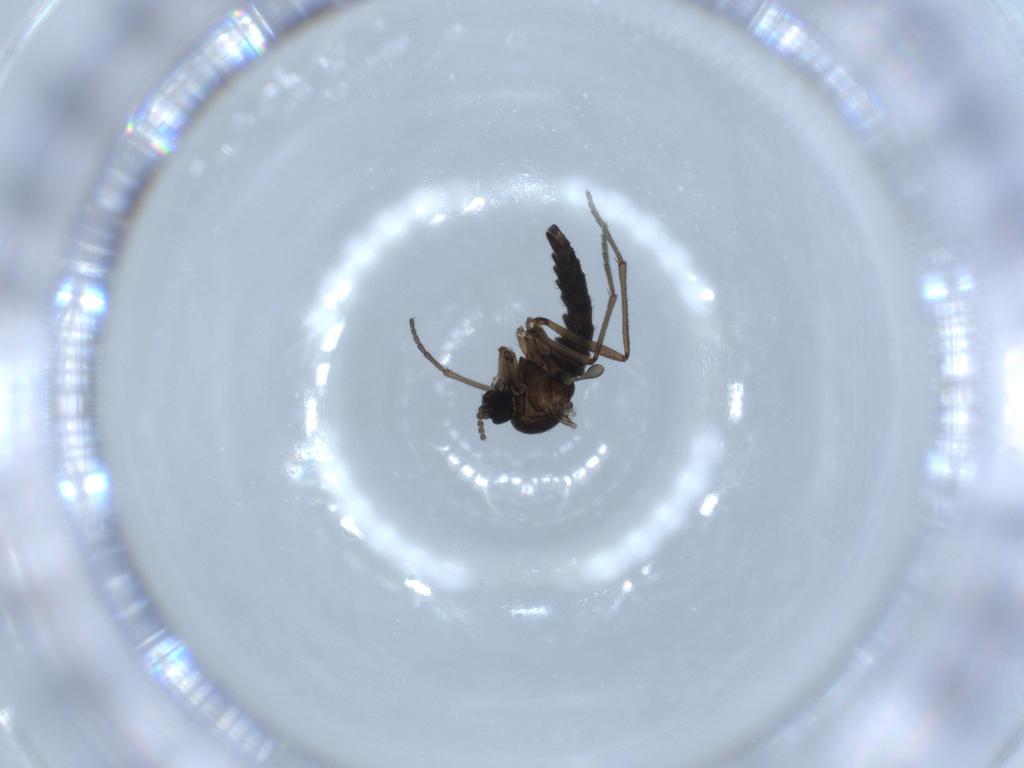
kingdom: Animalia
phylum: Arthropoda
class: Insecta
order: Diptera
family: Sciaridae
